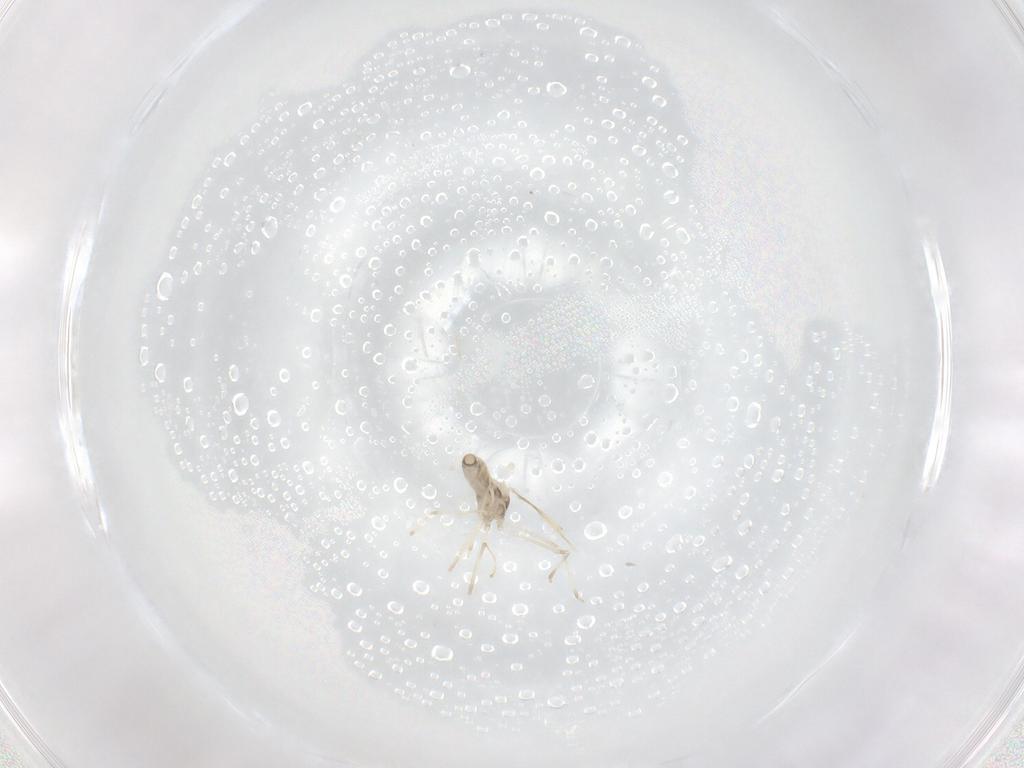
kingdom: Animalia
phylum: Arthropoda
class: Insecta
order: Diptera
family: Cecidomyiidae
